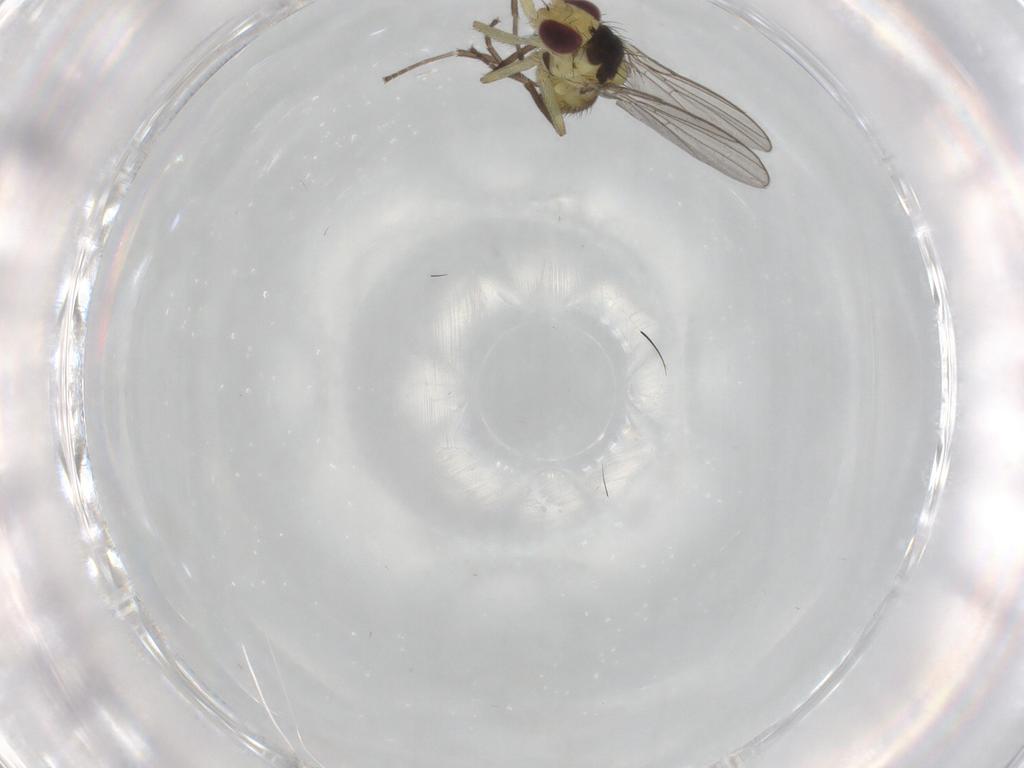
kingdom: Animalia
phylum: Arthropoda
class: Insecta
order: Diptera
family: Agromyzidae
